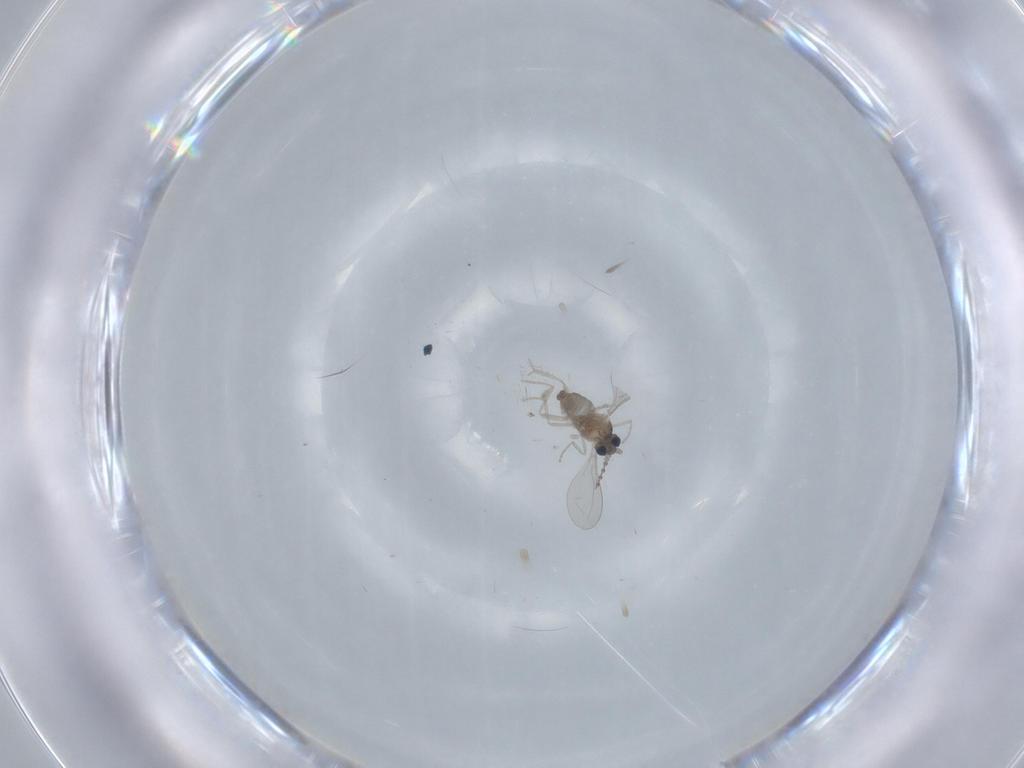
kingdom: Animalia
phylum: Arthropoda
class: Insecta
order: Diptera
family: Cecidomyiidae
